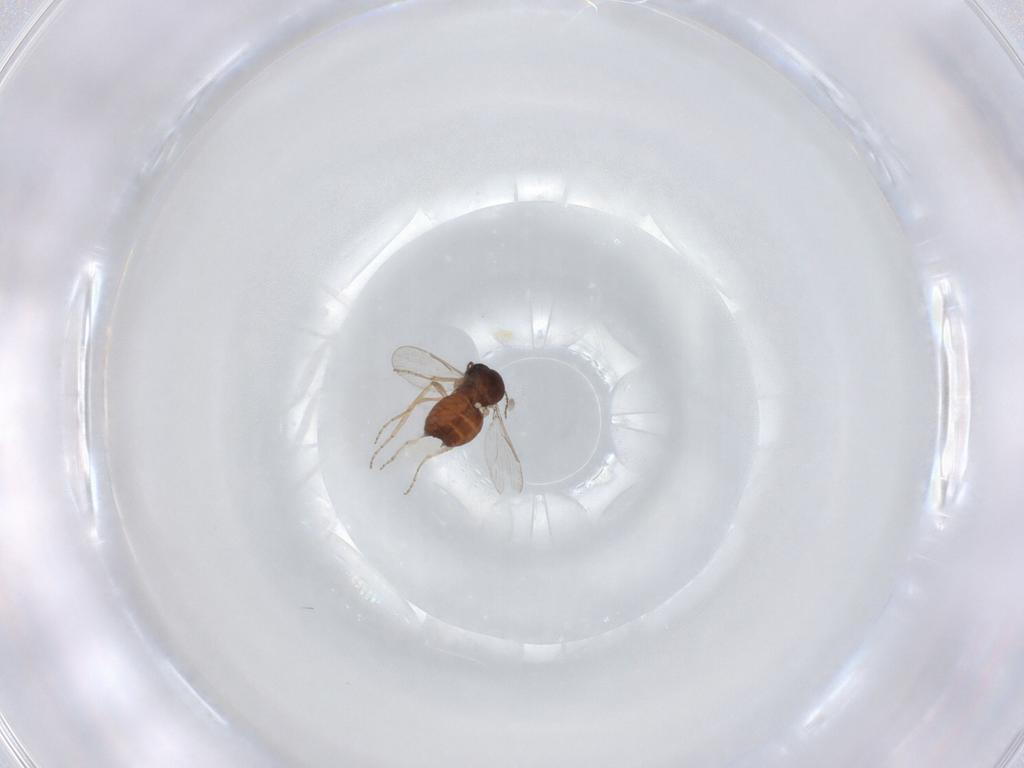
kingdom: Animalia
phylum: Arthropoda
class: Insecta
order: Diptera
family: Ceratopogonidae
